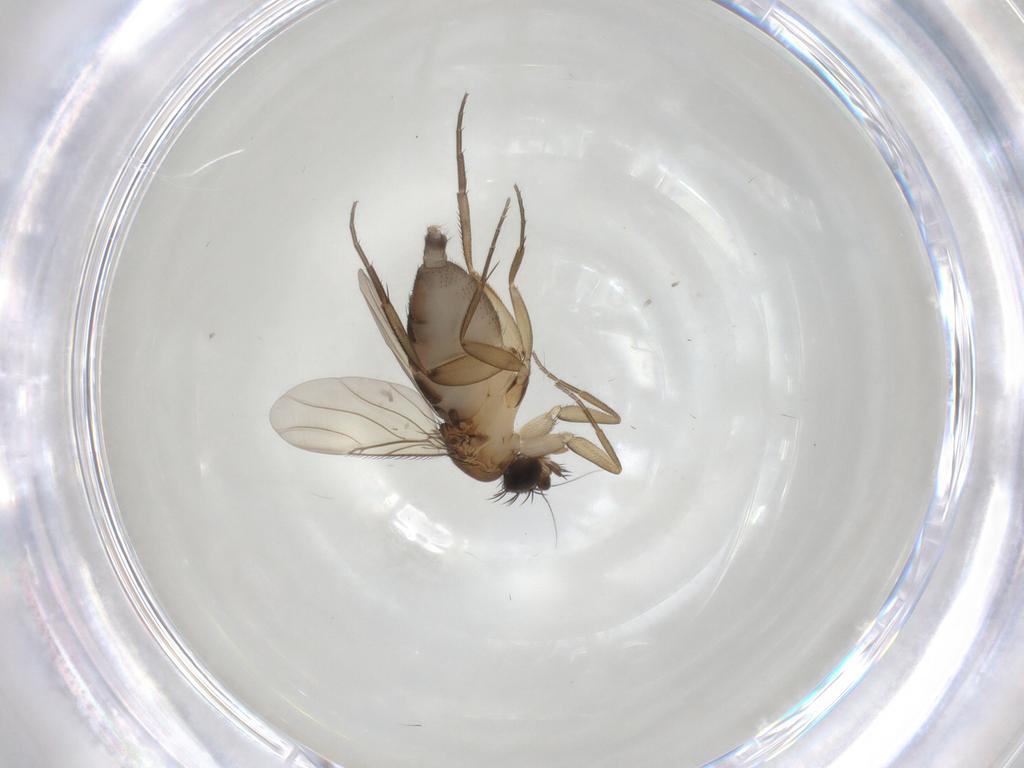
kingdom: Animalia
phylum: Arthropoda
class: Insecta
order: Diptera
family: Phoridae
